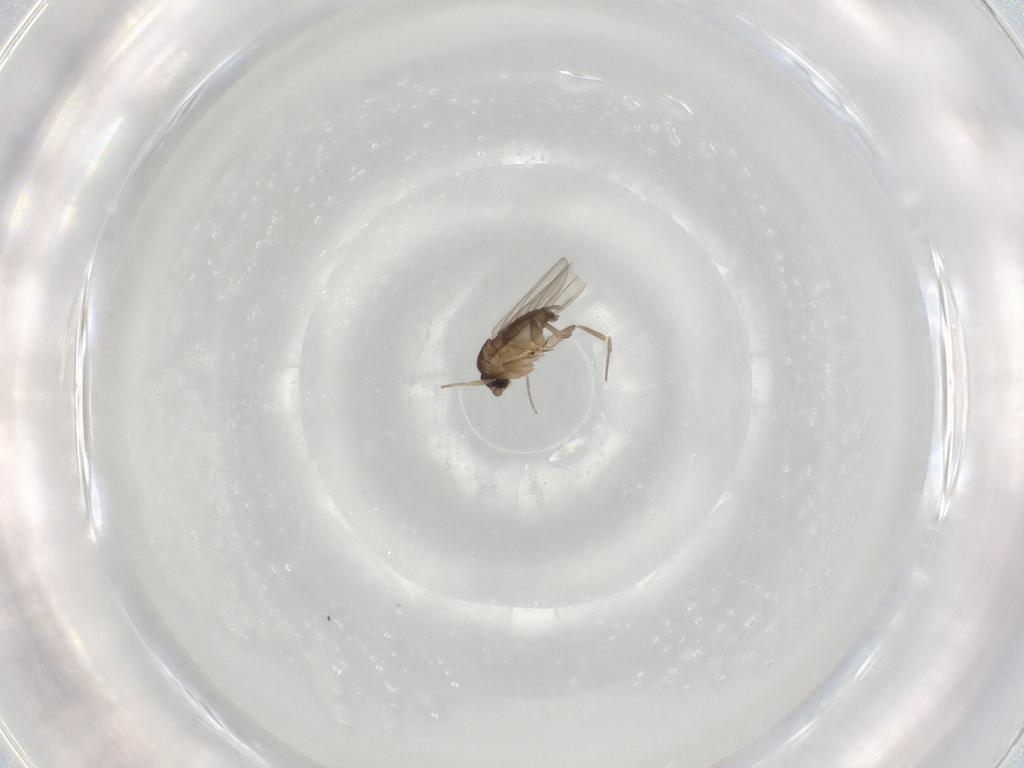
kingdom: Animalia
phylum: Arthropoda
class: Insecta
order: Diptera
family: Phoridae
